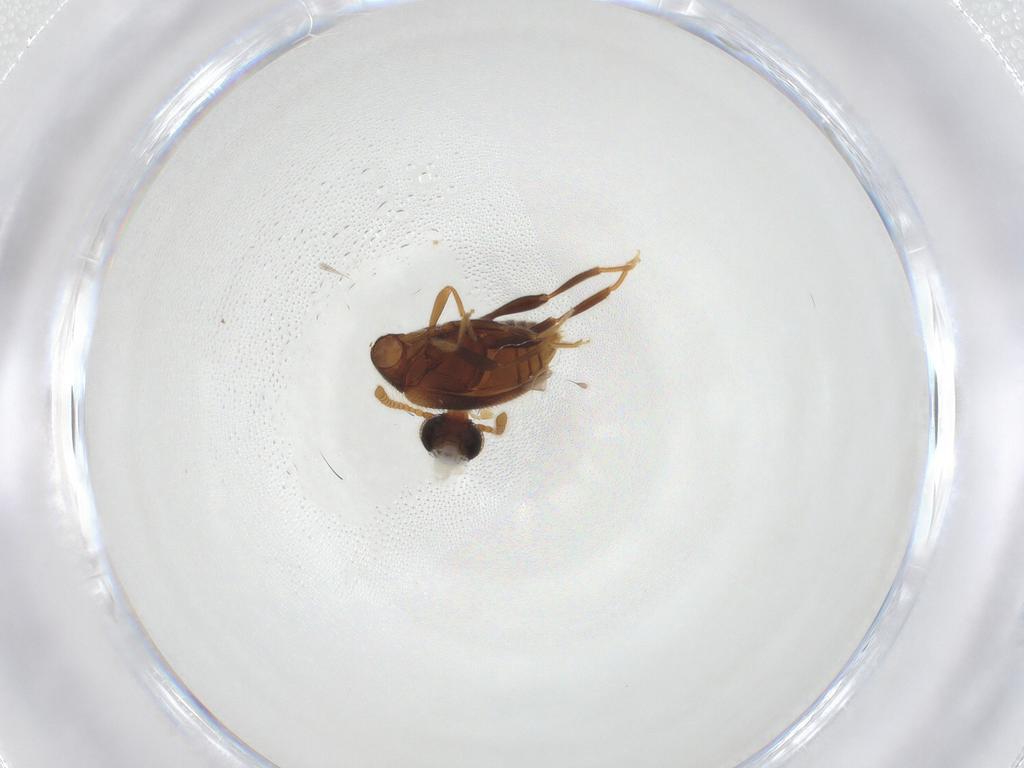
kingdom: Animalia
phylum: Arthropoda
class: Insecta
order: Coleoptera
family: Aderidae
